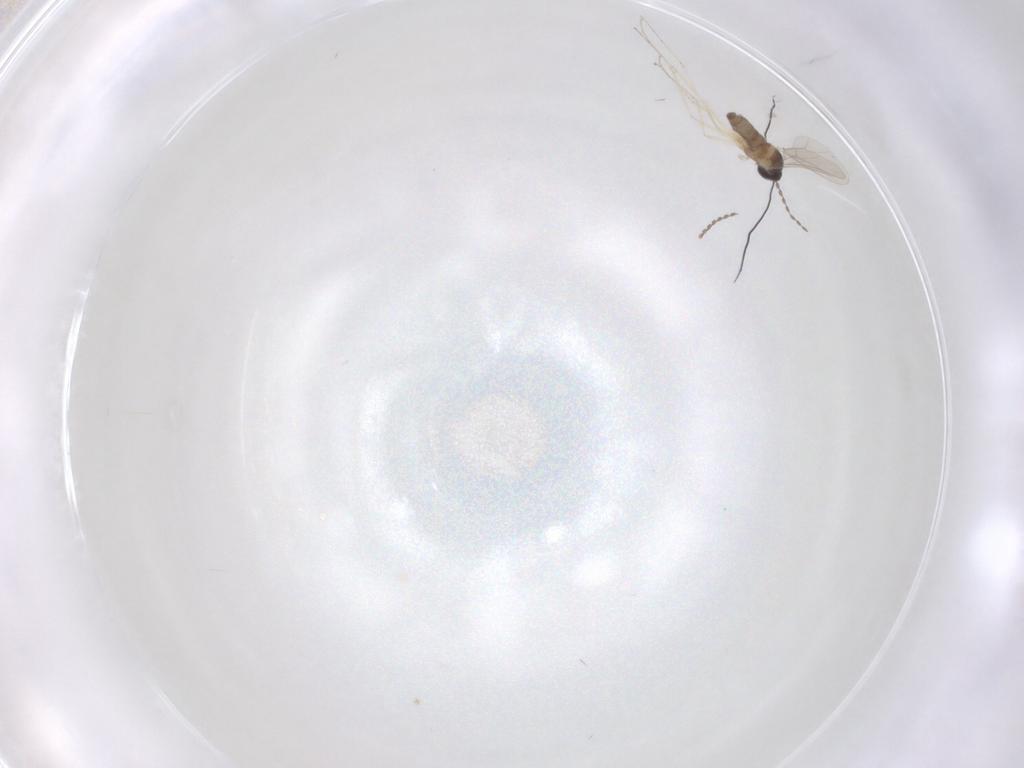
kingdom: Animalia
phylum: Arthropoda
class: Insecta
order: Diptera
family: Cecidomyiidae
